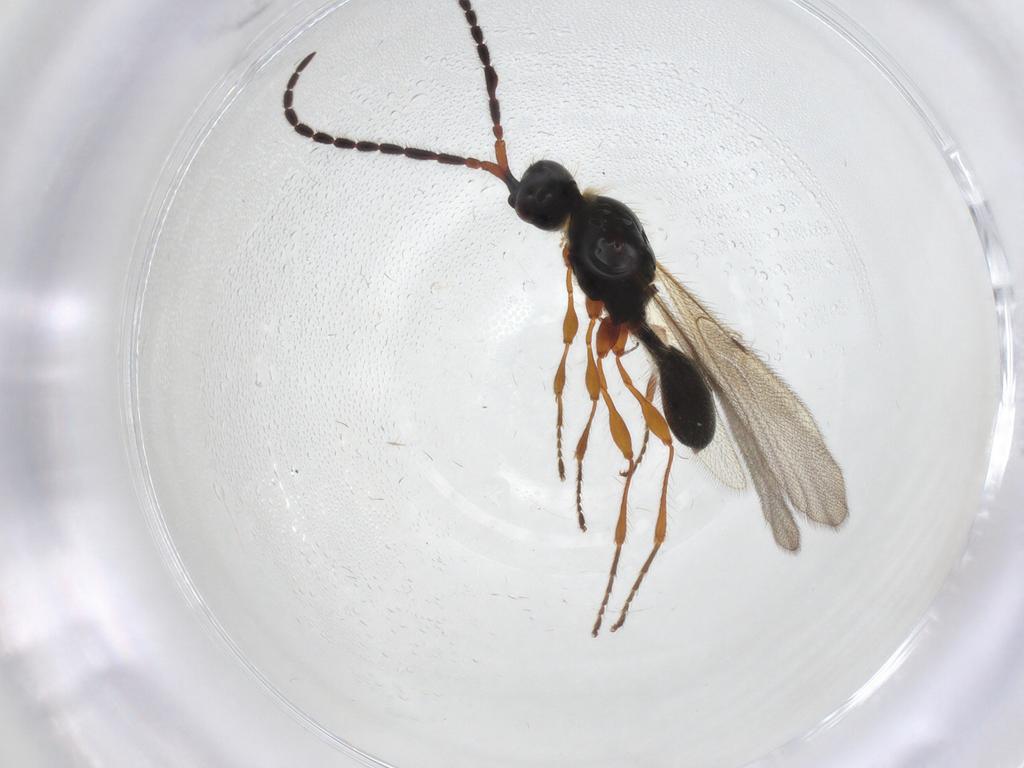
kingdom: Animalia
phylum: Arthropoda
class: Insecta
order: Hymenoptera
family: Diapriidae
